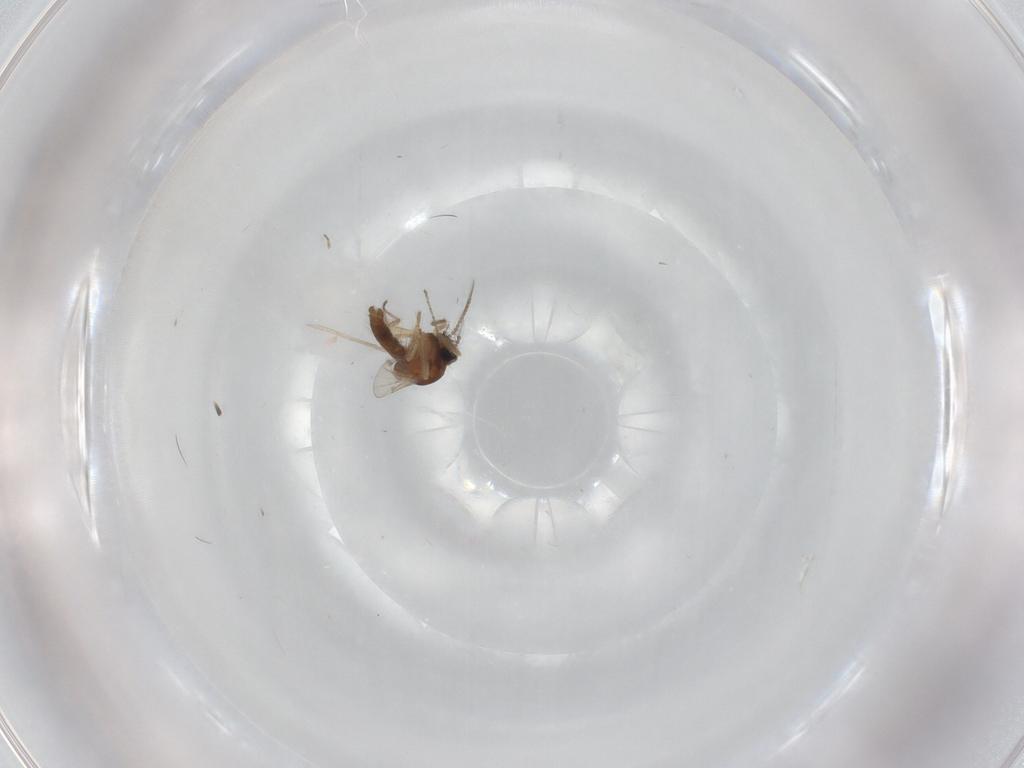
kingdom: Animalia
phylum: Arthropoda
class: Insecta
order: Diptera
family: Ceratopogonidae
